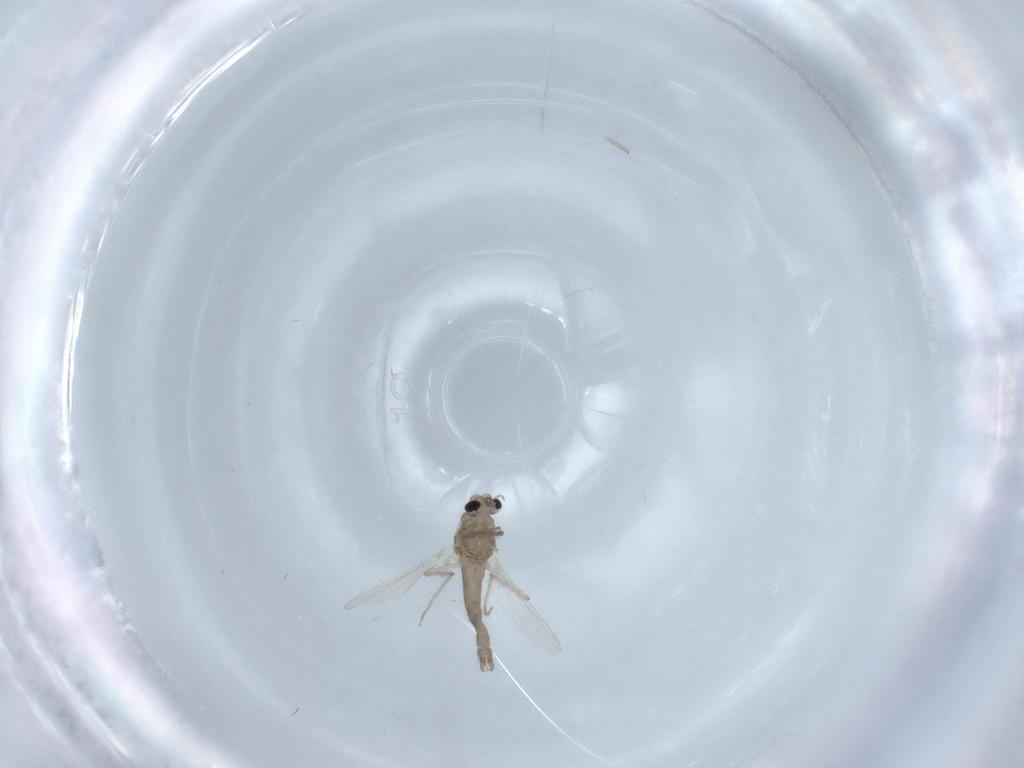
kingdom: Animalia
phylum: Arthropoda
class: Insecta
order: Diptera
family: Chironomidae
